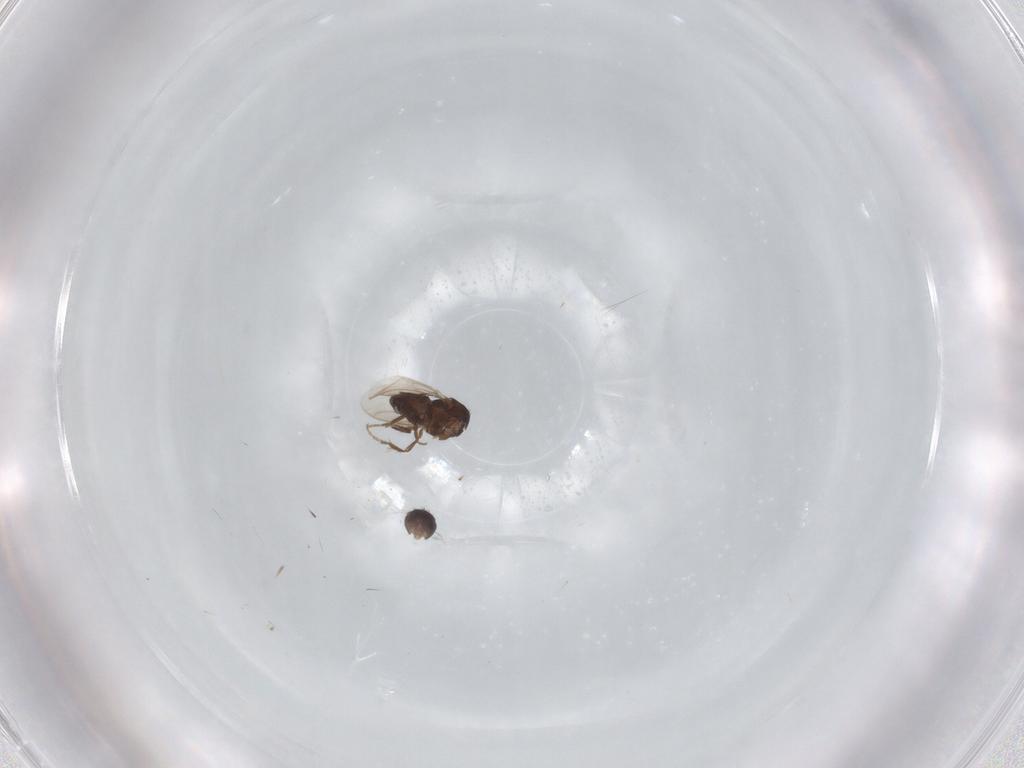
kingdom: Animalia
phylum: Arthropoda
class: Insecta
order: Diptera
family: Sphaeroceridae
